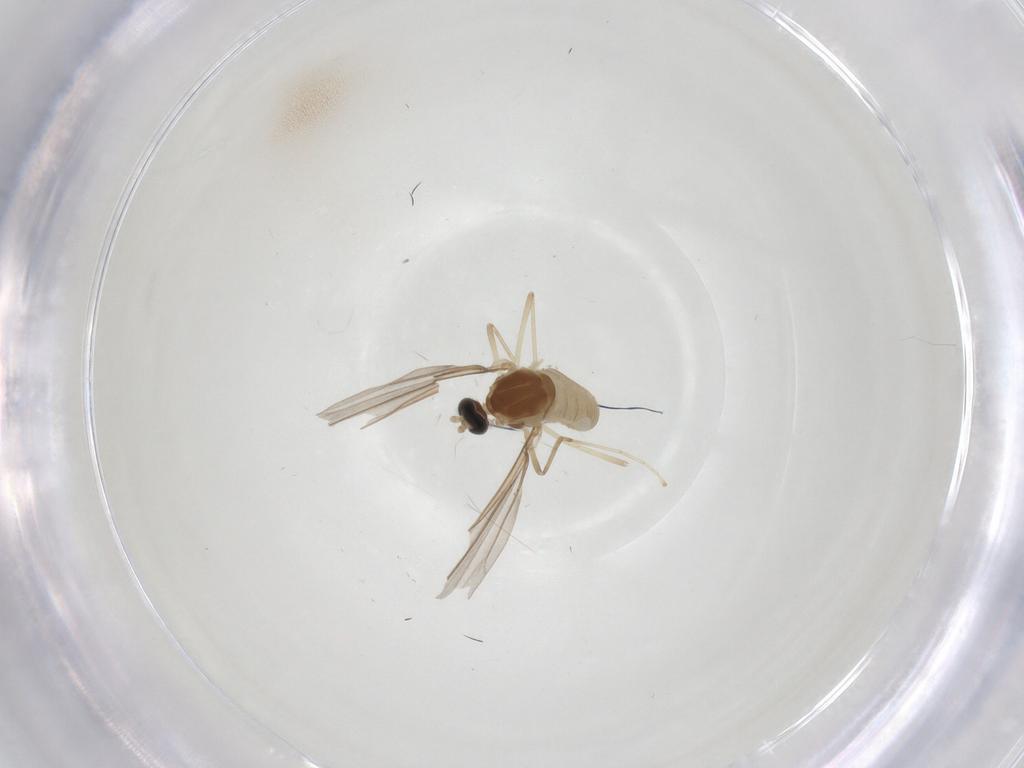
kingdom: Animalia
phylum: Arthropoda
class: Insecta
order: Diptera
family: Cecidomyiidae
